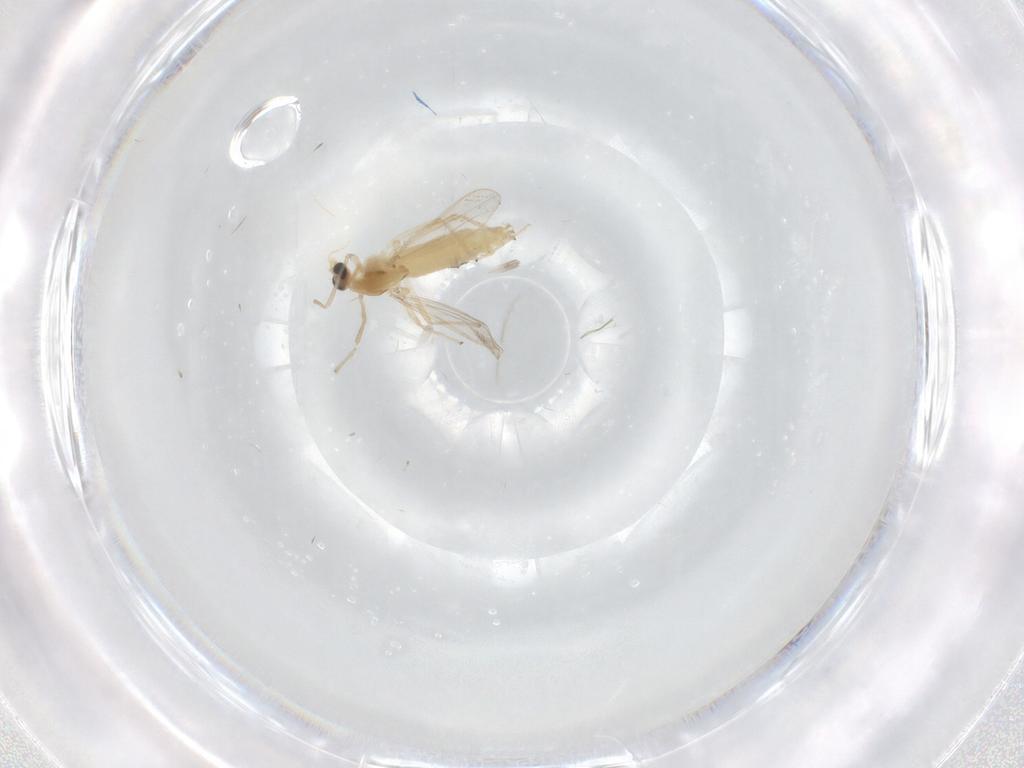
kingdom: Animalia
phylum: Arthropoda
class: Insecta
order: Diptera
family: Chironomidae
